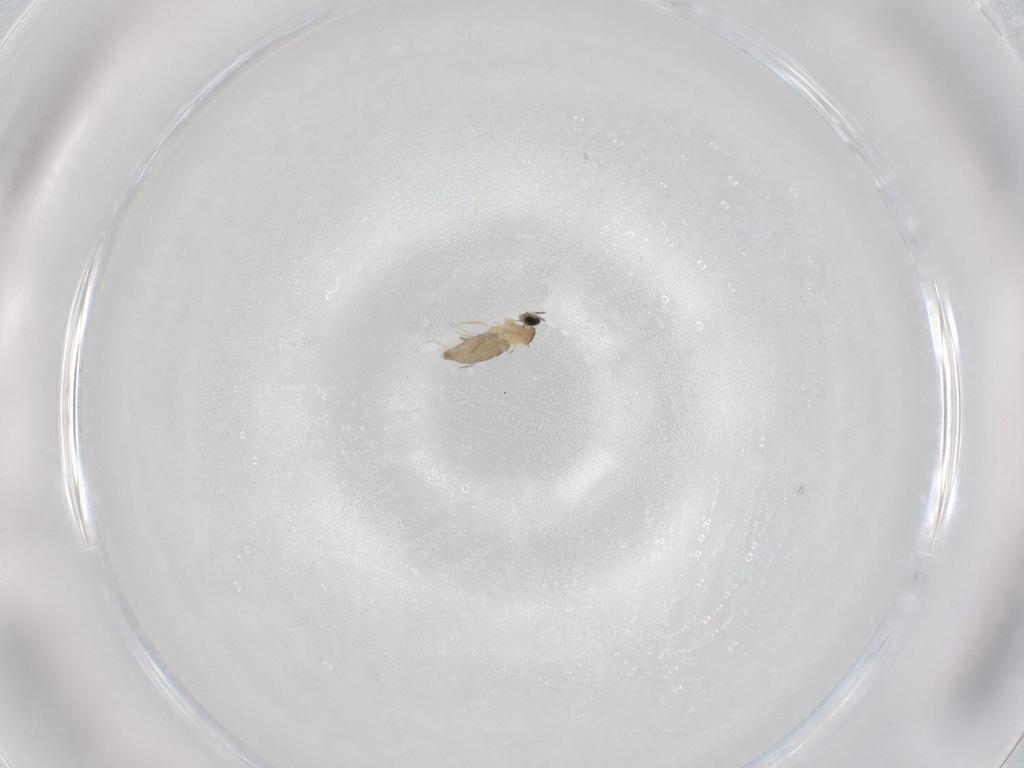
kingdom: Animalia
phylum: Arthropoda
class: Insecta
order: Diptera
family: Cecidomyiidae
